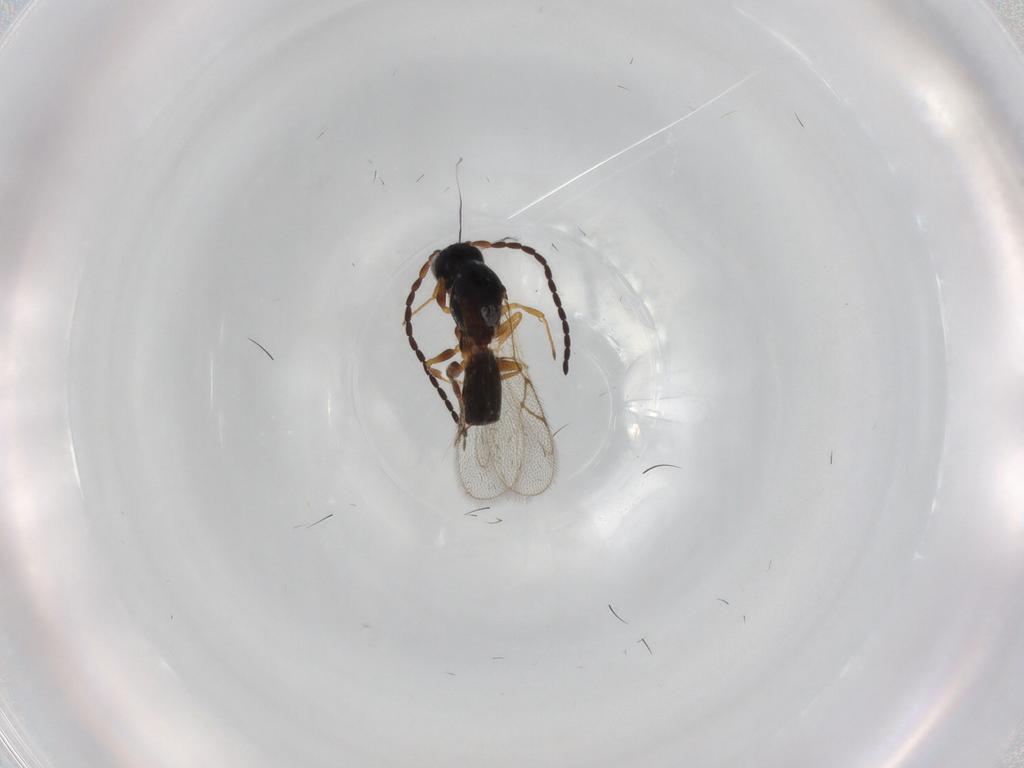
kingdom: Animalia
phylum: Arthropoda
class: Insecta
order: Hymenoptera
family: Figitidae
